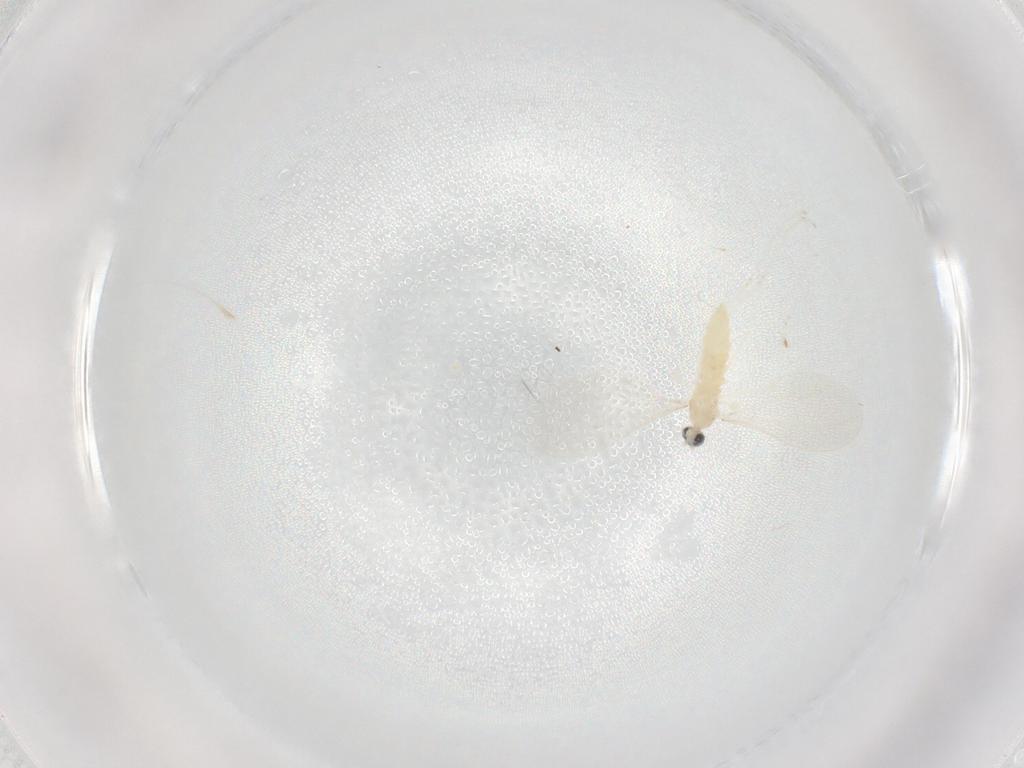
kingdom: Animalia
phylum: Arthropoda
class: Insecta
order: Diptera
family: Cecidomyiidae
